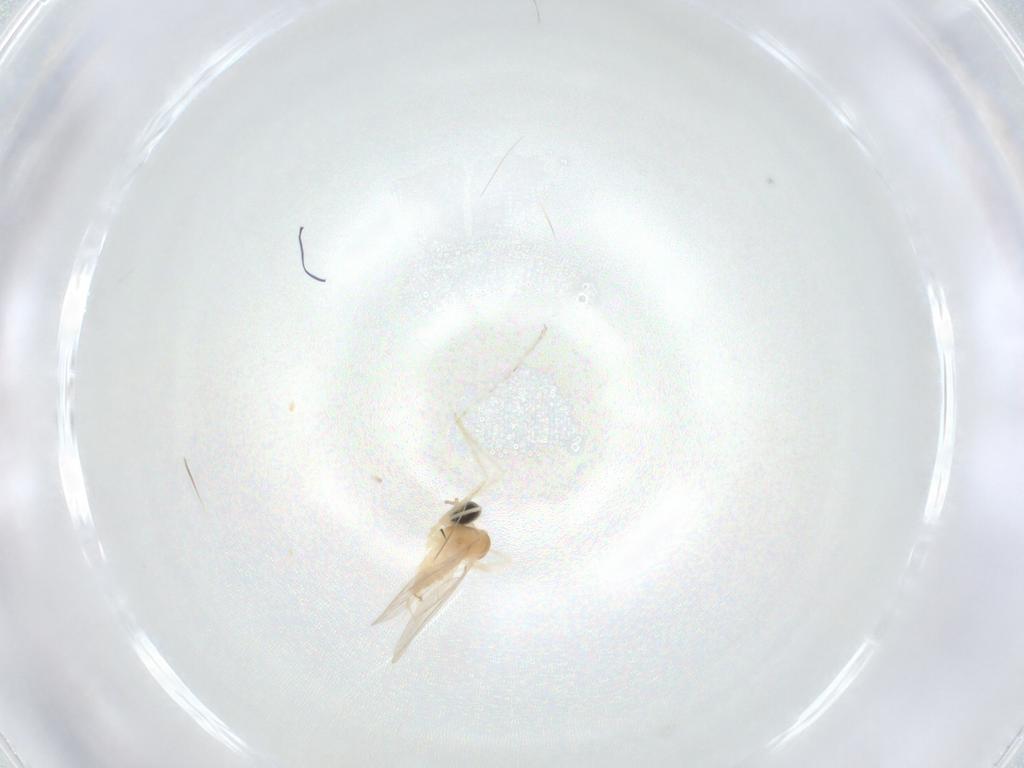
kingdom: Animalia
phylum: Arthropoda
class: Insecta
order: Diptera
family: Cecidomyiidae
